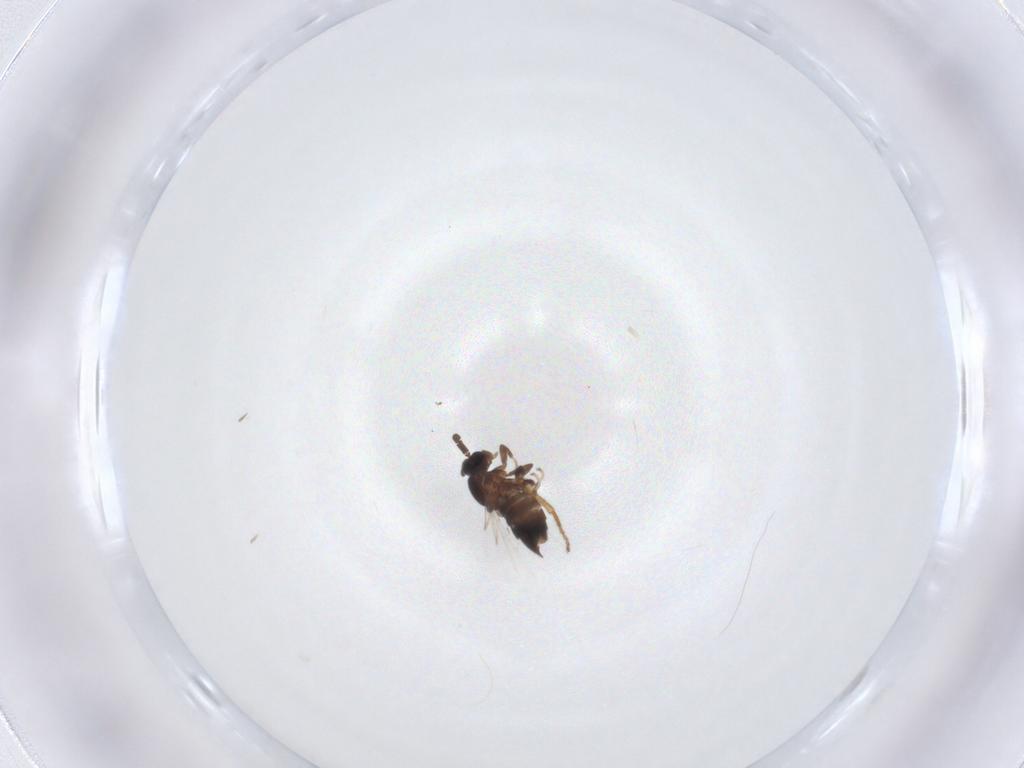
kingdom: Animalia
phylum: Arthropoda
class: Insecta
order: Diptera
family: Scatopsidae
